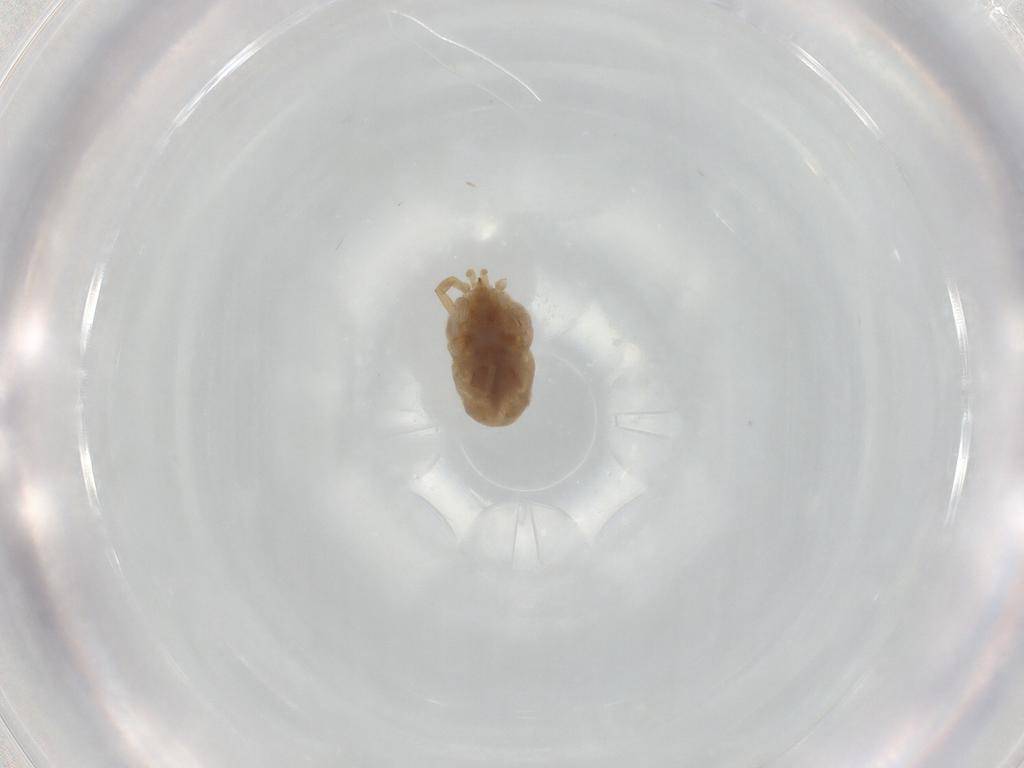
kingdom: Animalia
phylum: Arthropoda
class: Arachnida
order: Trombidiformes
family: Erythraeidae
